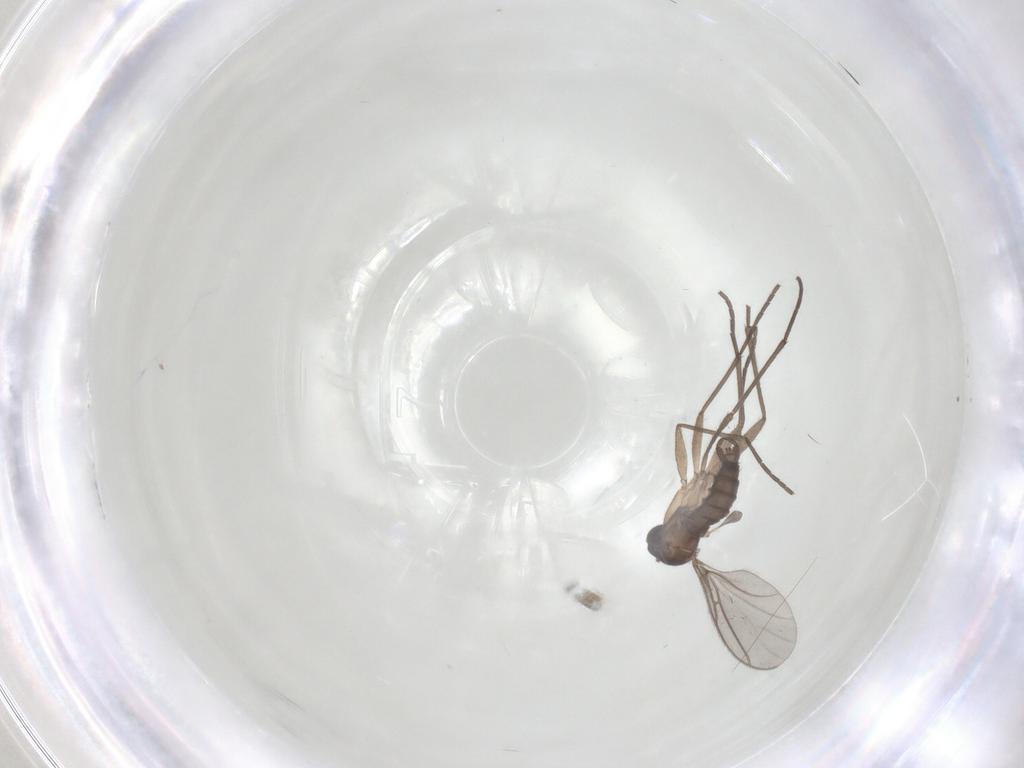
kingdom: Animalia
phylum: Arthropoda
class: Insecta
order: Diptera
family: Sciaridae
